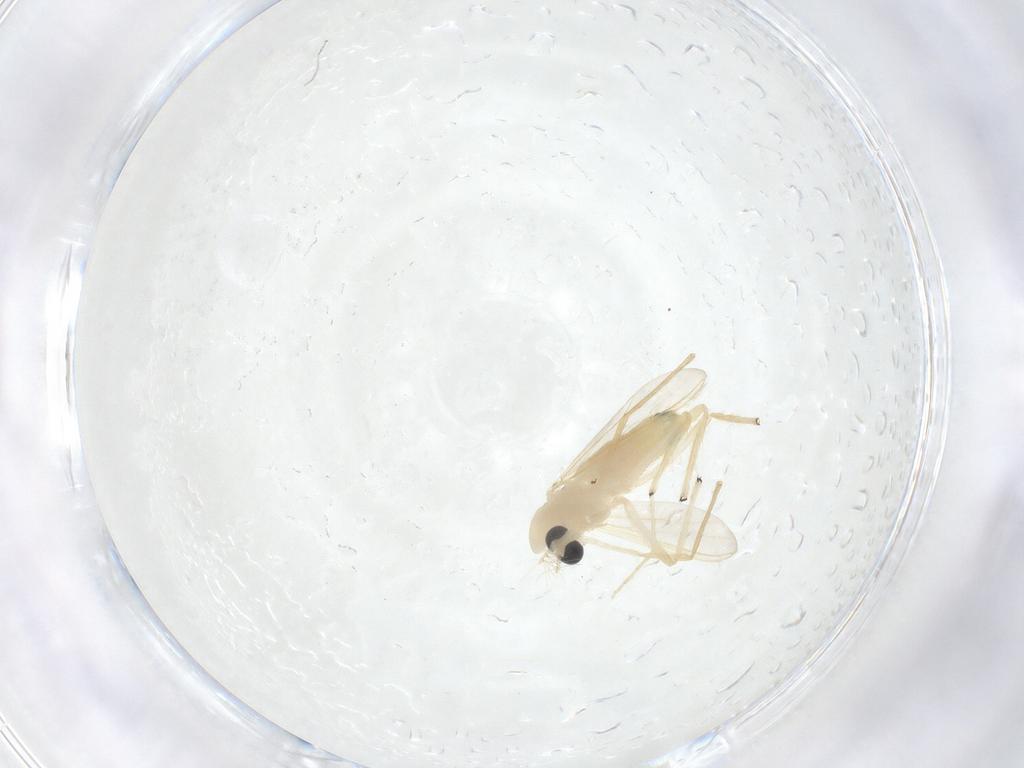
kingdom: Animalia
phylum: Arthropoda
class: Insecta
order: Diptera
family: Chironomidae
